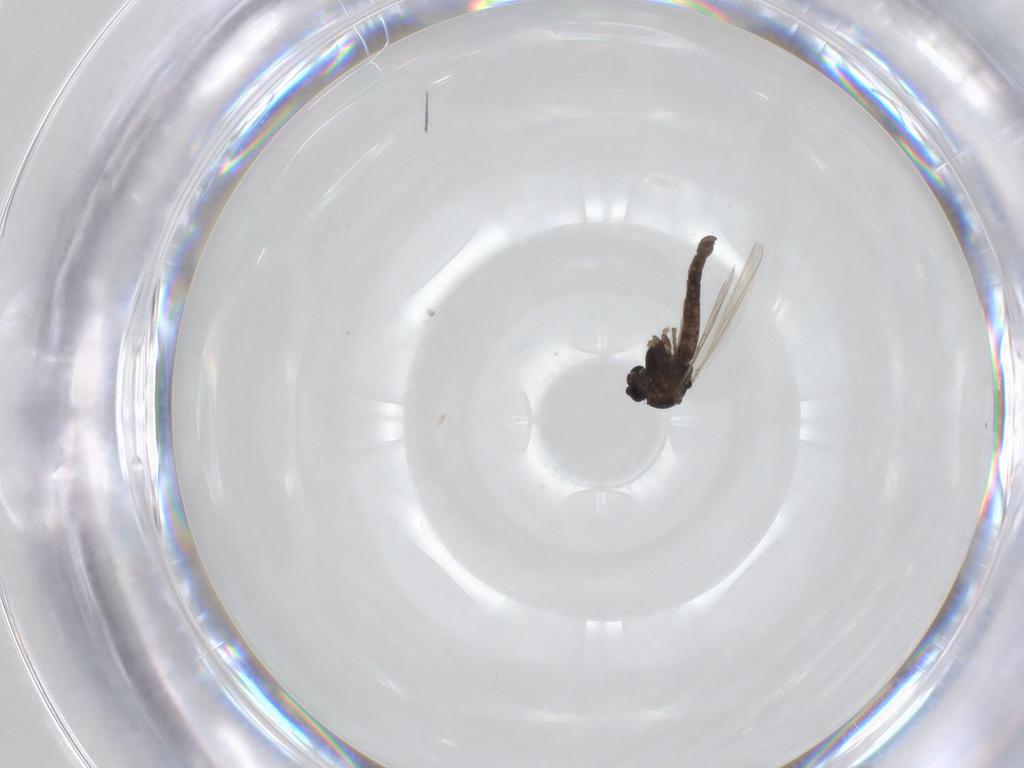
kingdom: Animalia
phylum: Arthropoda
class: Insecta
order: Diptera
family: Chironomidae
